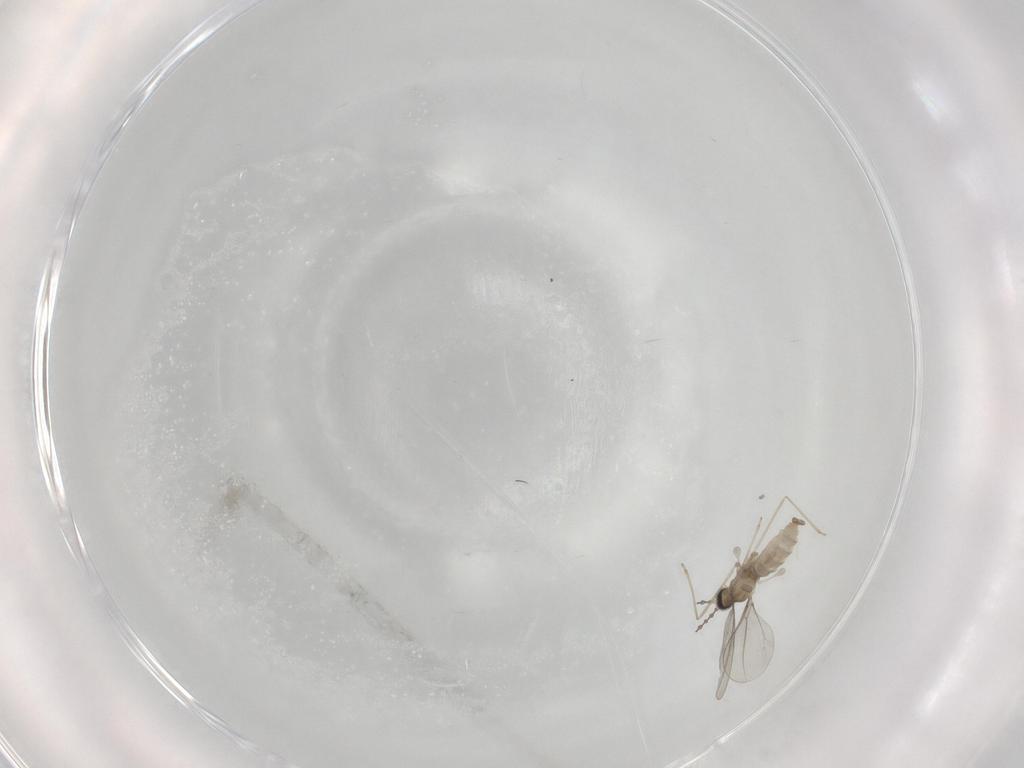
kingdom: Animalia
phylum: Arthropoda
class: Insecta
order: Diptera
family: Cecidomyiidae
